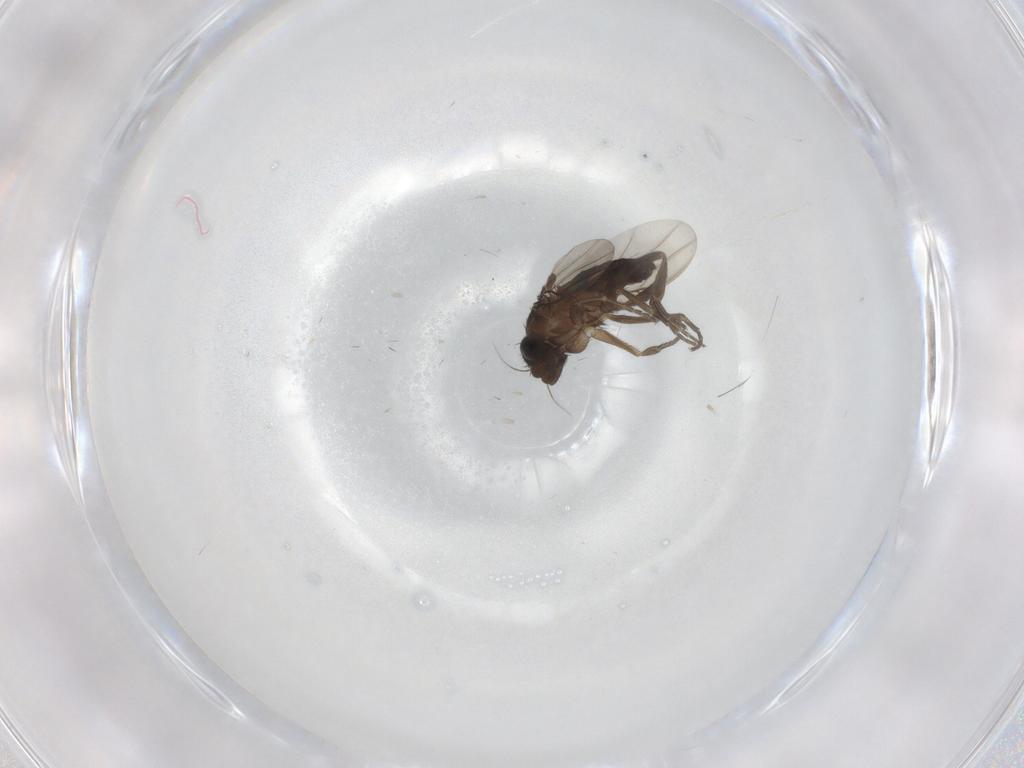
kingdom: Animalia
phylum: Arthropoda
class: Insecta
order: Diptera
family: Phoridae
